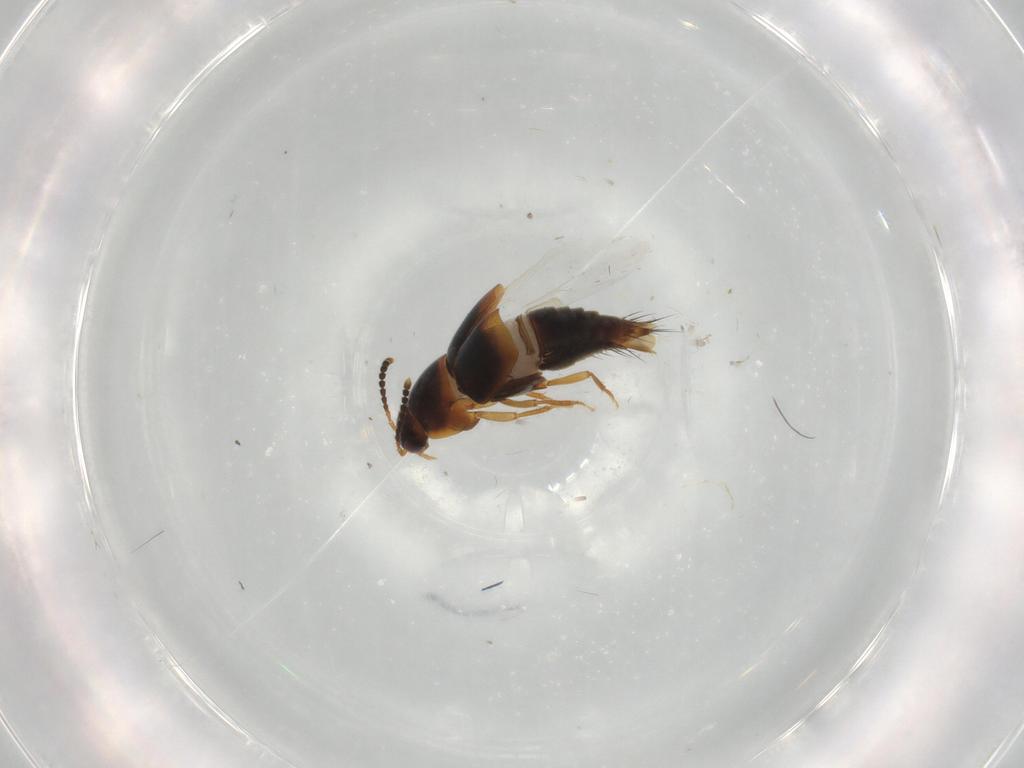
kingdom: Animalia
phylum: Arthropoda
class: Insecta
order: Coleoptera
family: Staphylinidae
